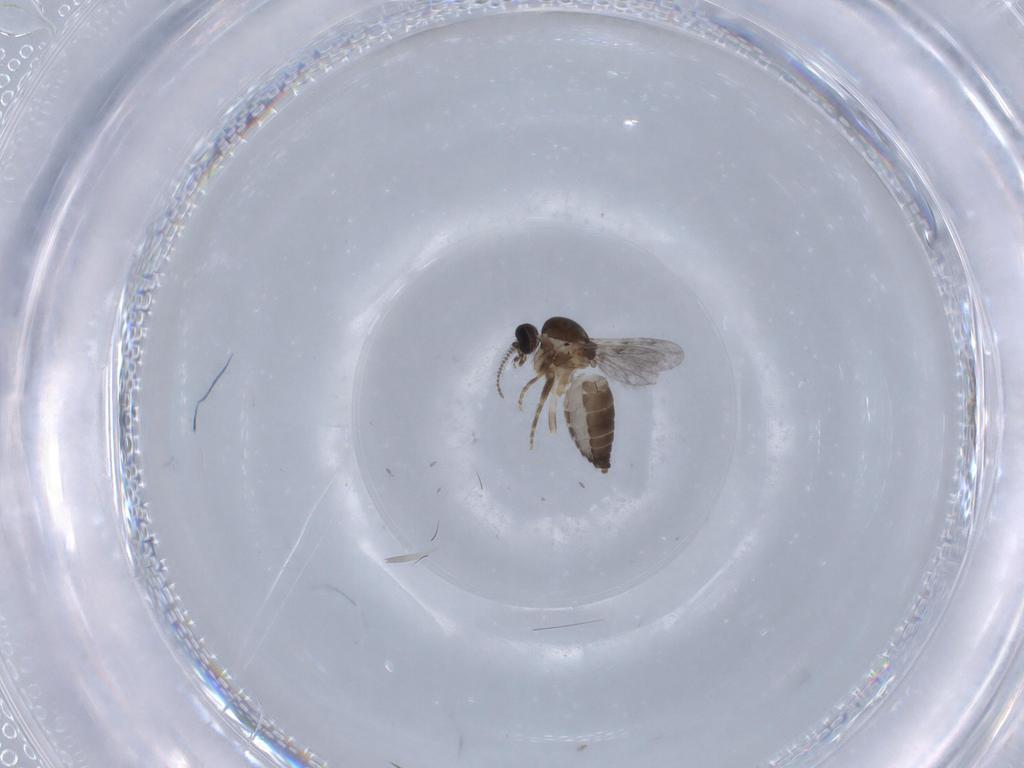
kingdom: Animalia
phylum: Arthropoda
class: Insecta
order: Diptera
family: Ceratopogonidae
